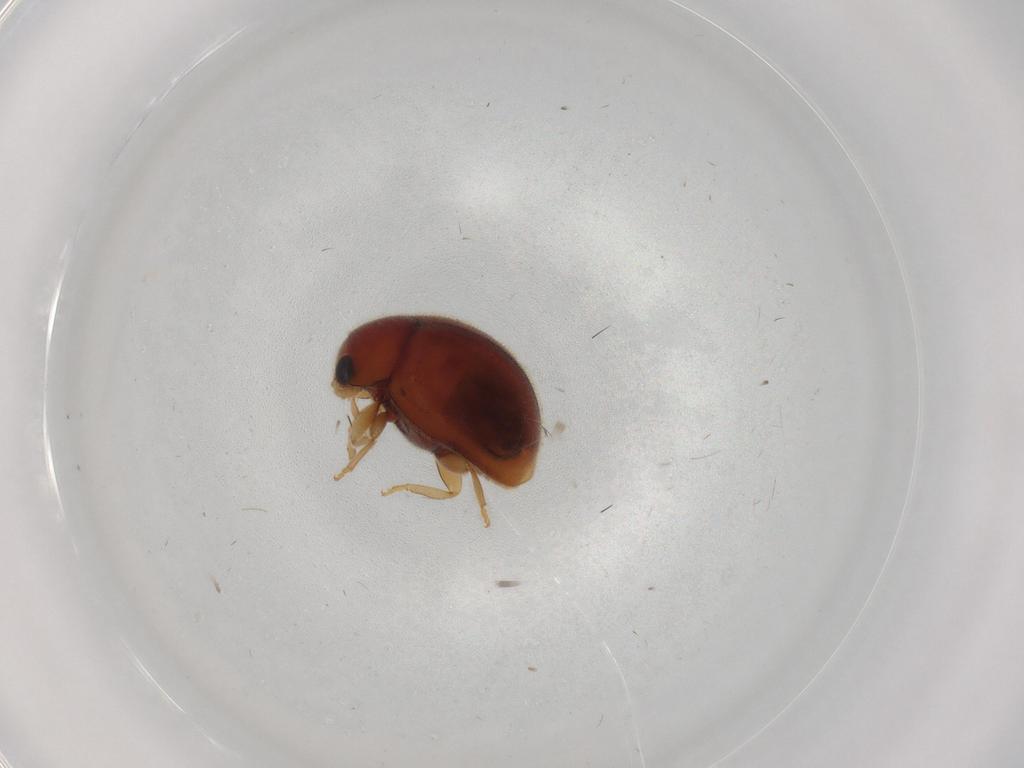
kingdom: Animalia
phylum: Arthropoda
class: Insecta
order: Coleoptera
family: Coccinellidae
